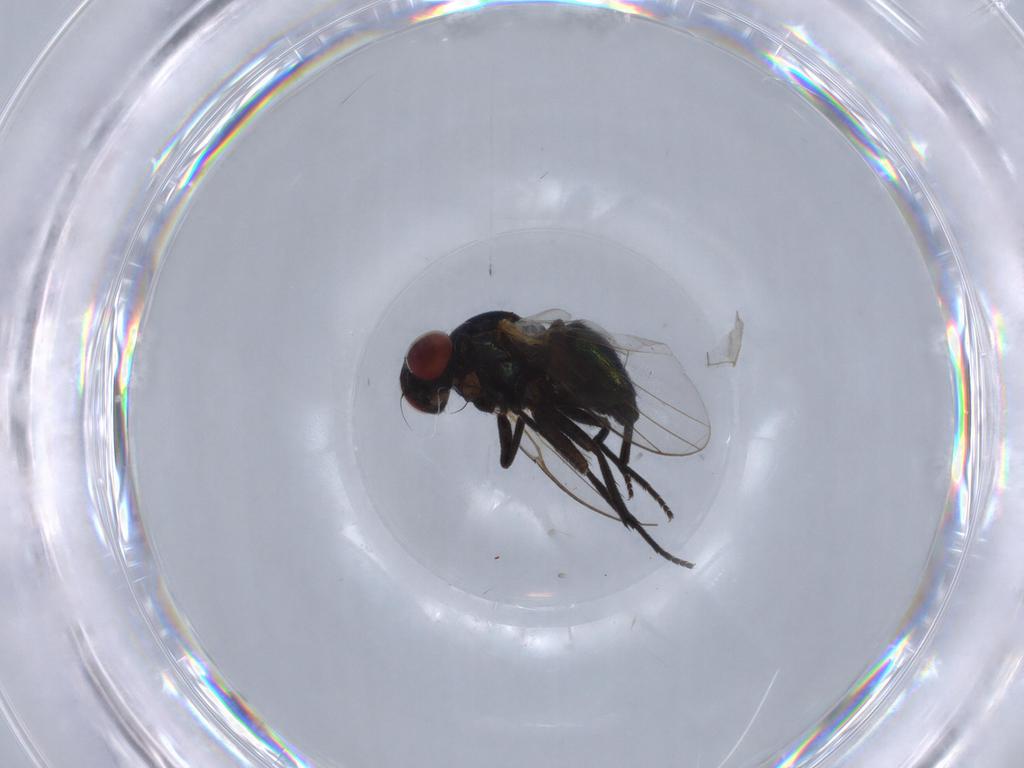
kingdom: Animalia
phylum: Arthropoda
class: Insecta
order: Diptera
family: Agromyzidae
